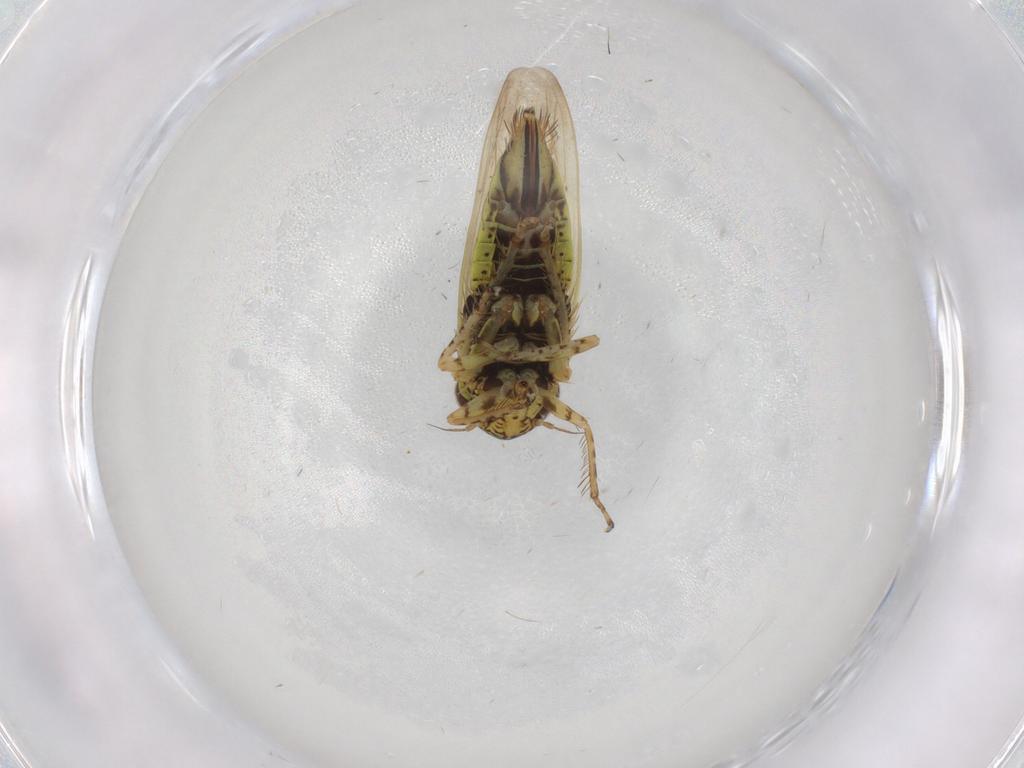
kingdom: Animalia
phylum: Arthropoda
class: Insecta
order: Hemiptera
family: Cicadellidae
